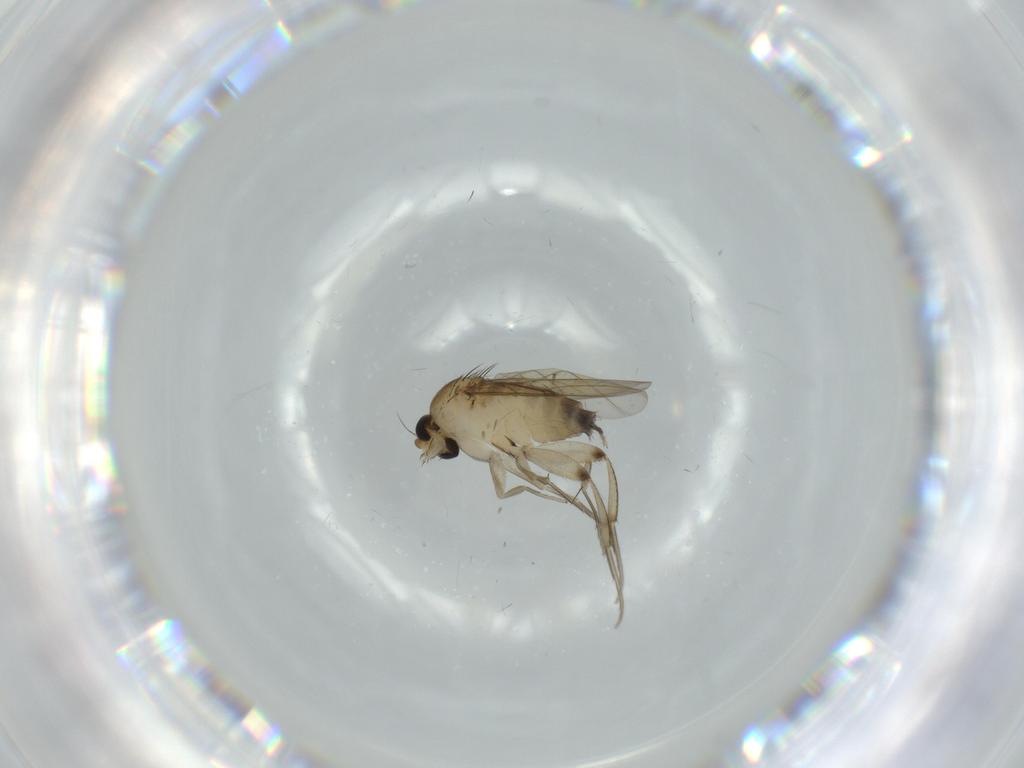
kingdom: Animalia
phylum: Arthropoda
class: Insecta
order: Diptera
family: Phoridae
